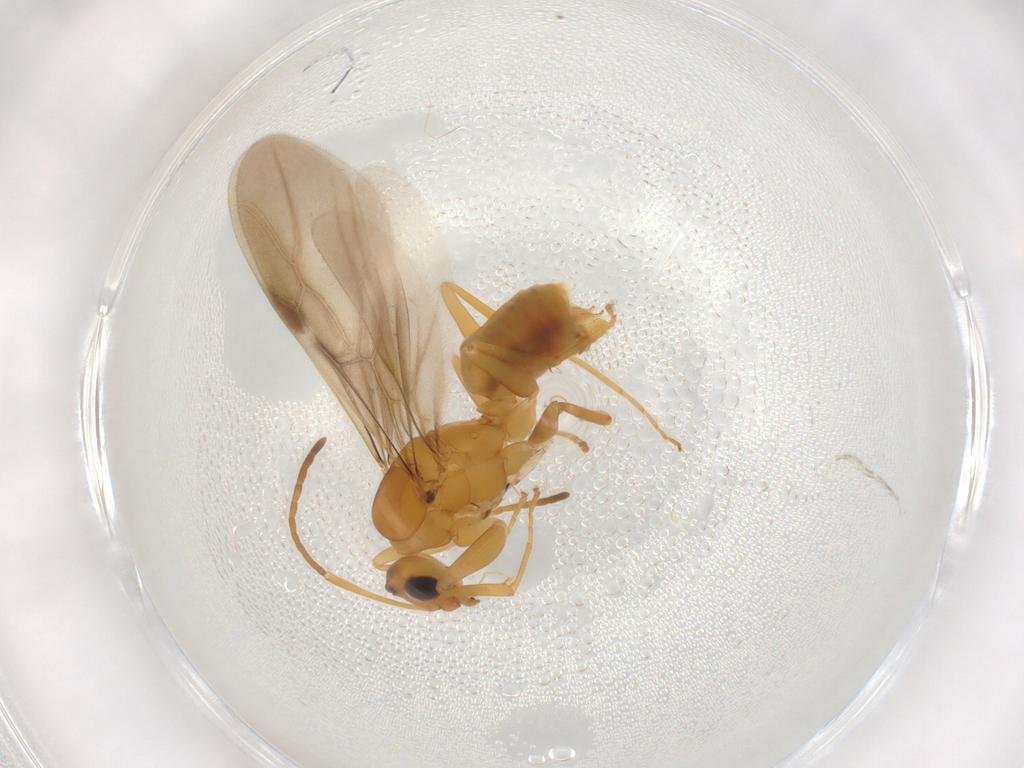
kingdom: Animalia
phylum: Arthropoda
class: Insecta
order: Hymenoptera
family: Formicidae
